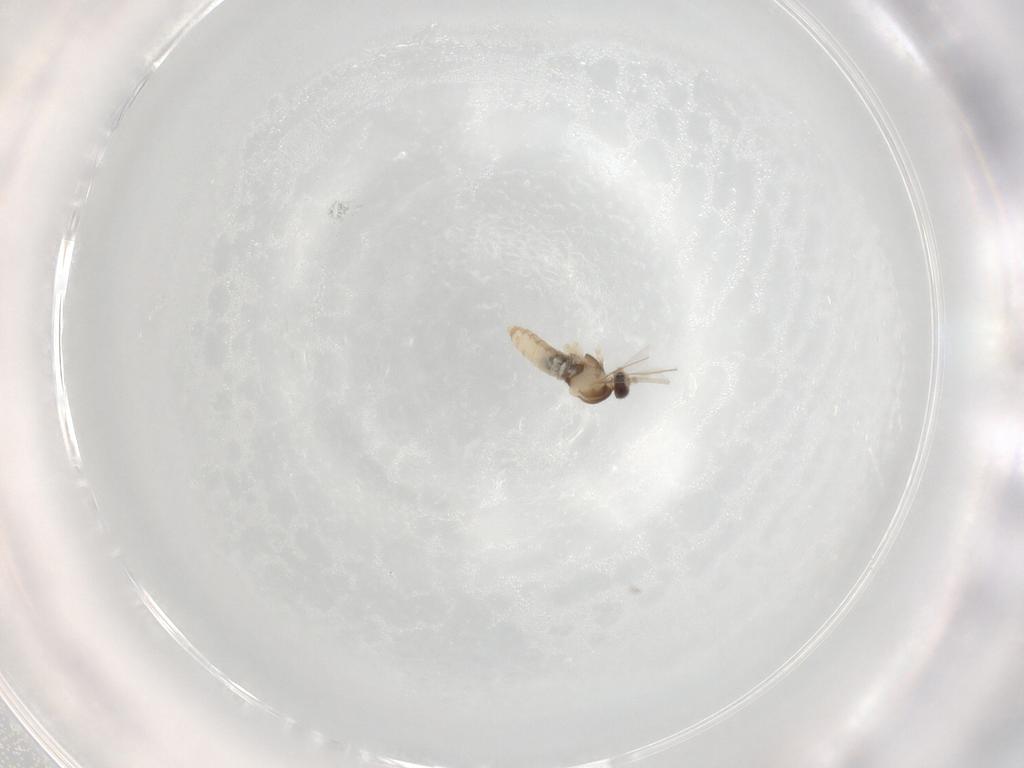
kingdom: Animalia
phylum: Arthropoda
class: Insecta
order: Diptera
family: Cecidomyiidae
